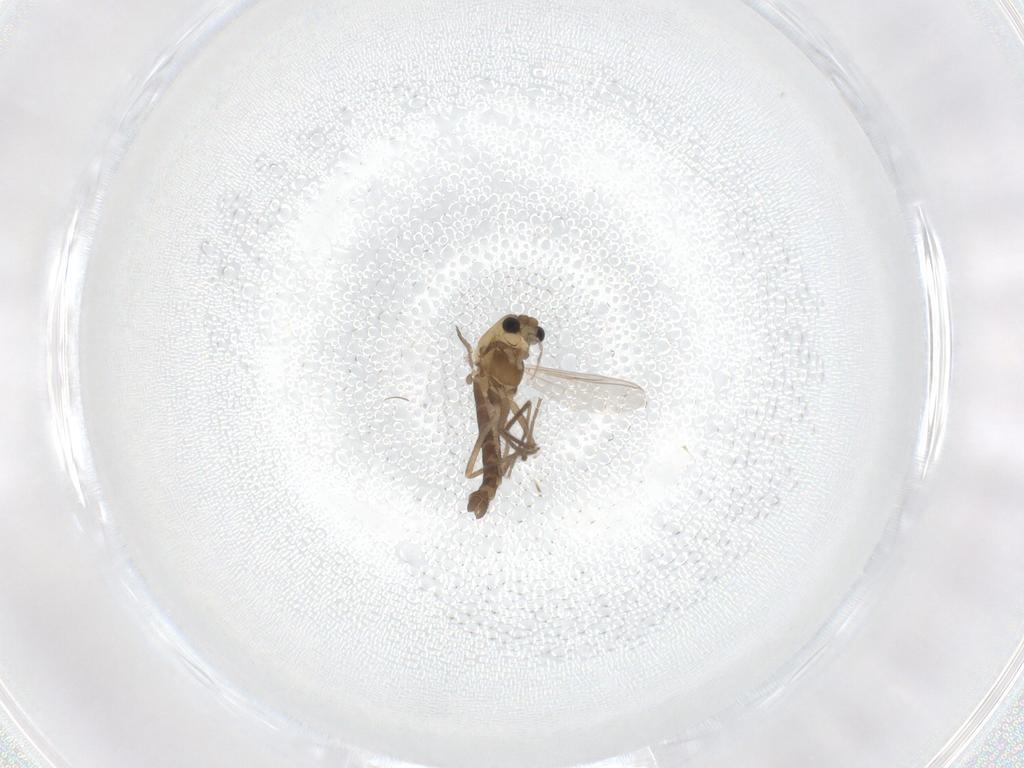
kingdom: Animalia
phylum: Arthropoda
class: Insecta
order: Diptera
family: Chironomidae
